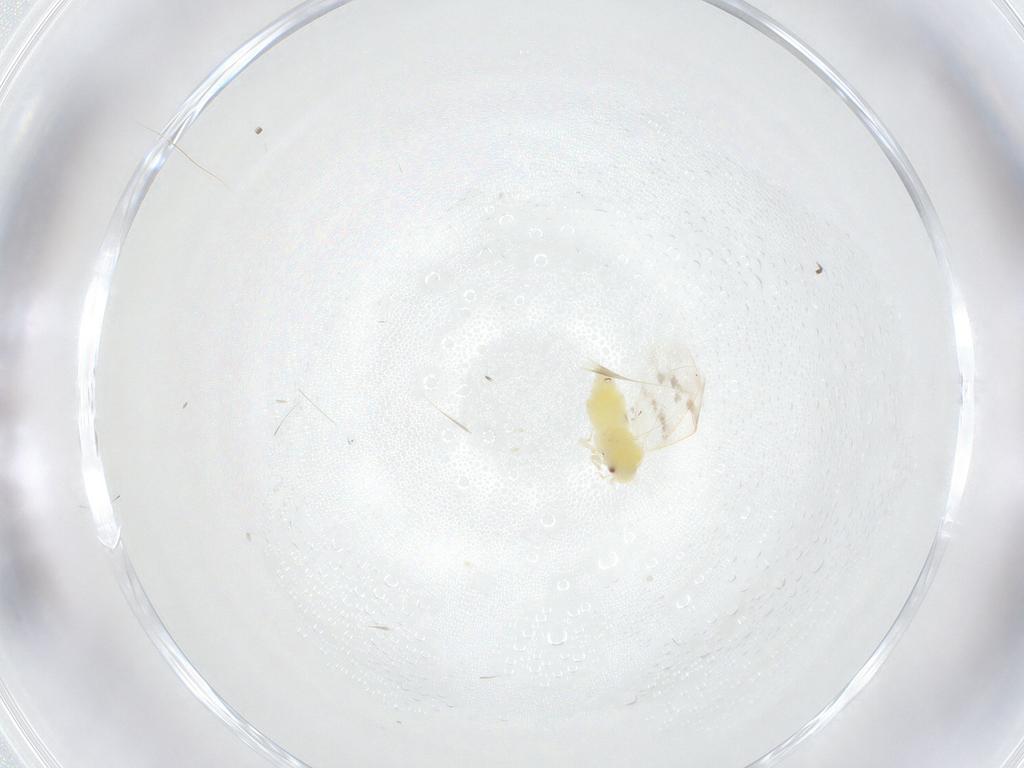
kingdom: Animalia
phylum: Arthropoda
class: Insecta
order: Hemiptera
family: Aleyrodidae
